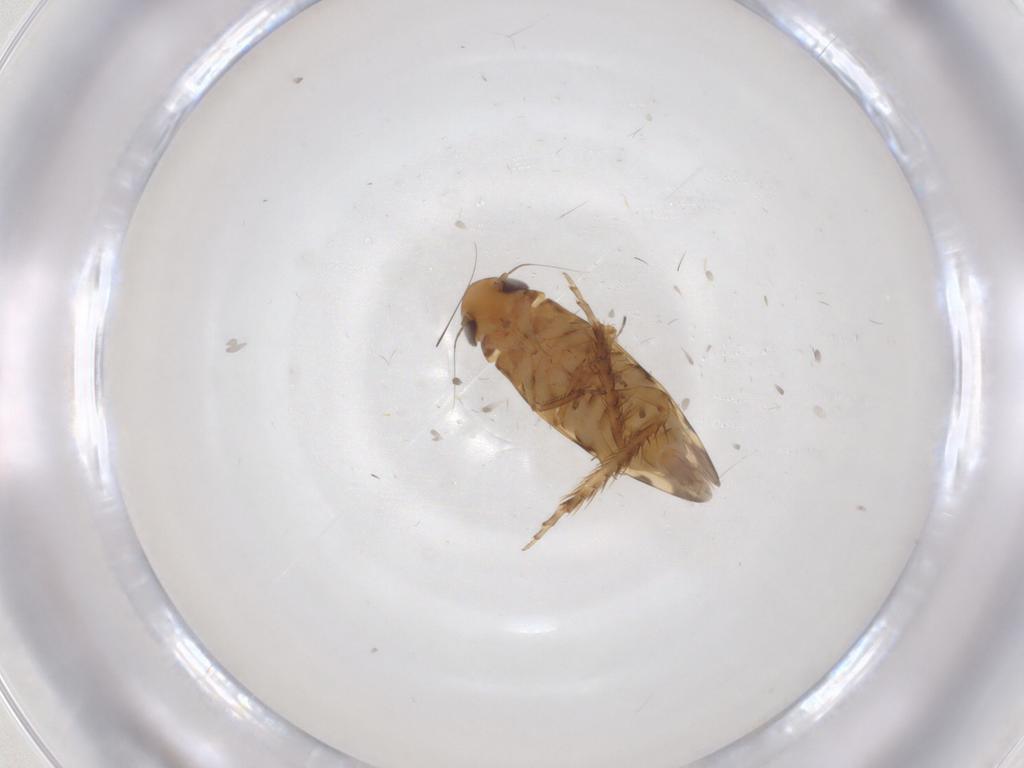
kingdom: Animalia
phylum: Arthropoda
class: Insecta
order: Hemiptera
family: Cicadellidae
